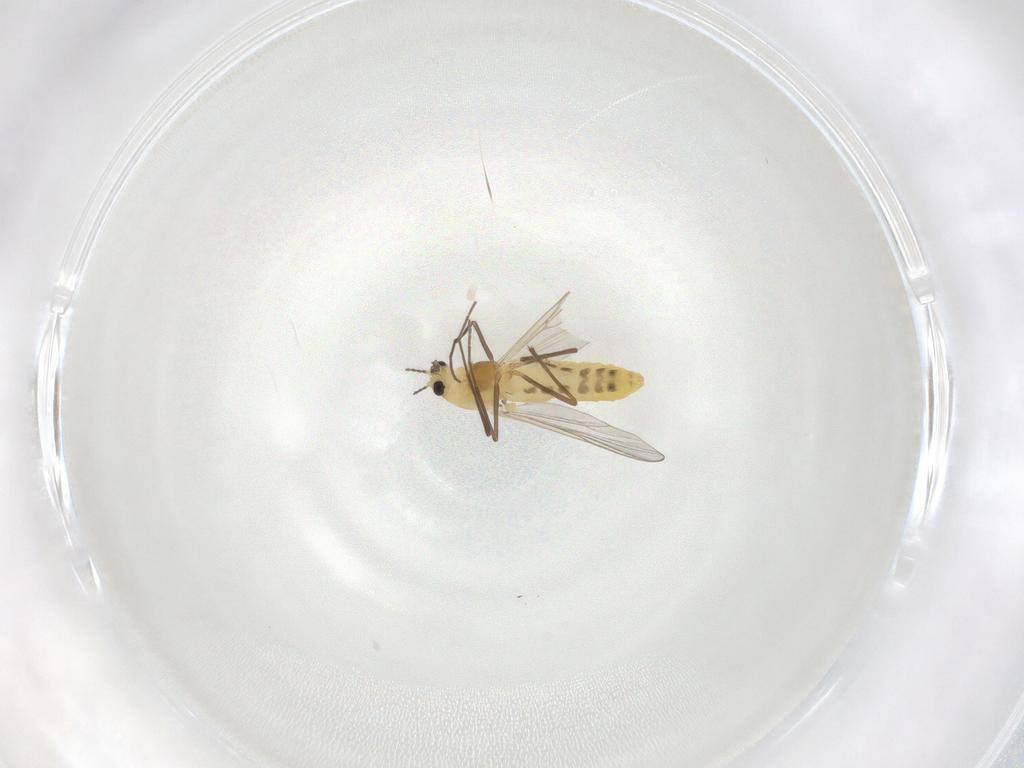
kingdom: Animalia
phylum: Arthropoda
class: Insecta
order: Diptera
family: Chironomidae
